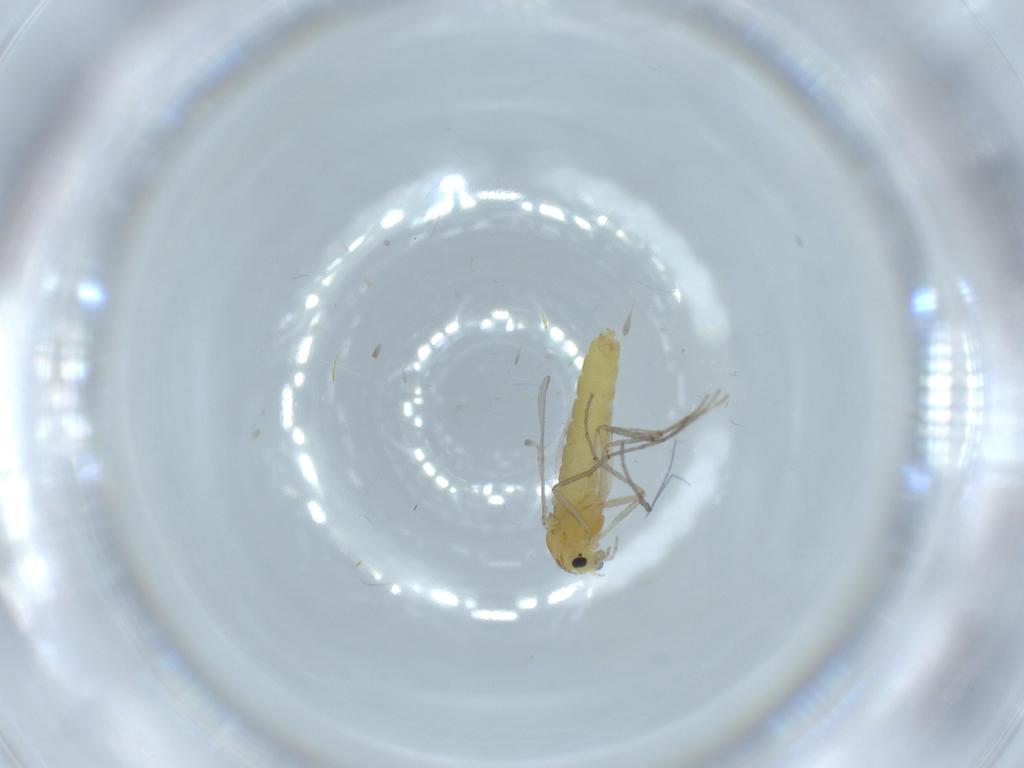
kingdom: Animalia
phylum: Arthropoda
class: Insecta
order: Diptera
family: Chironomidae
